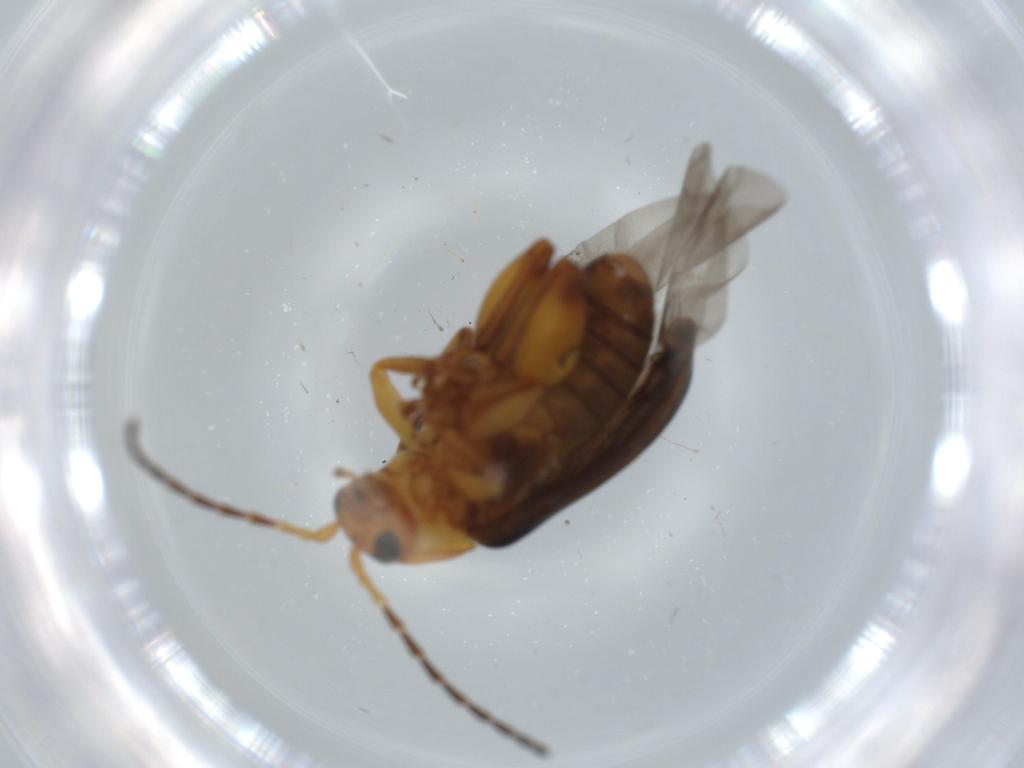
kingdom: Animalia
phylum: Arthropoda
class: Insecta
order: Coleoptera
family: Chrysomelidae
